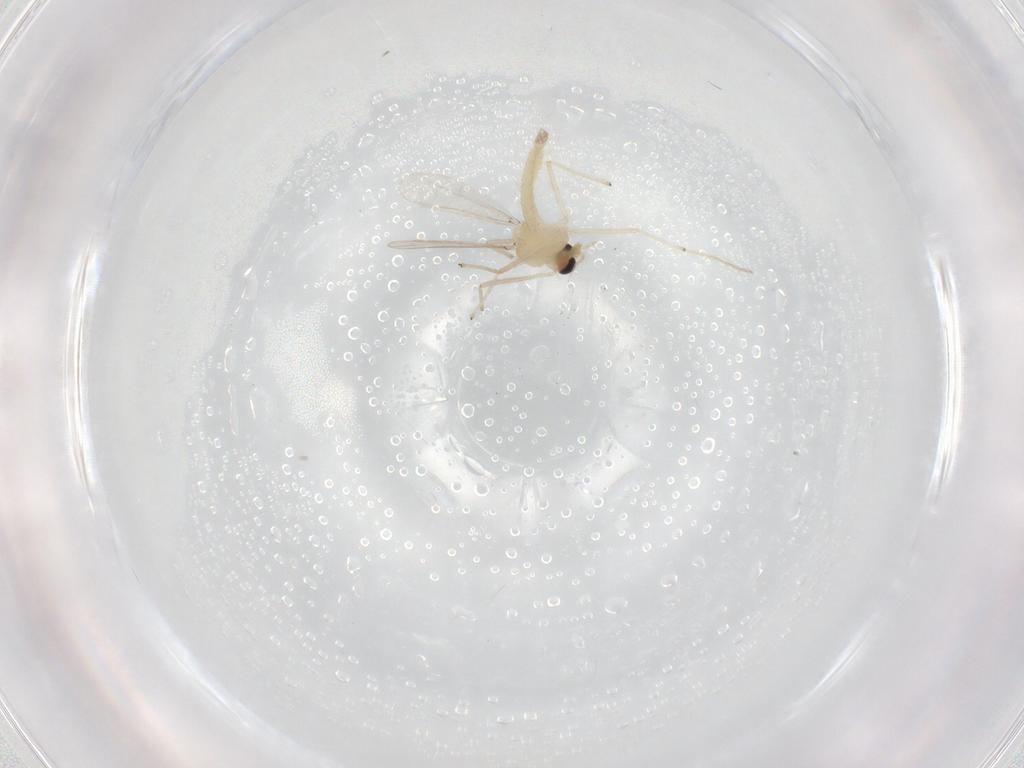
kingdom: Animalia
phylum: Arthropoda
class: Insecta
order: Diptera
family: Chironomidae
